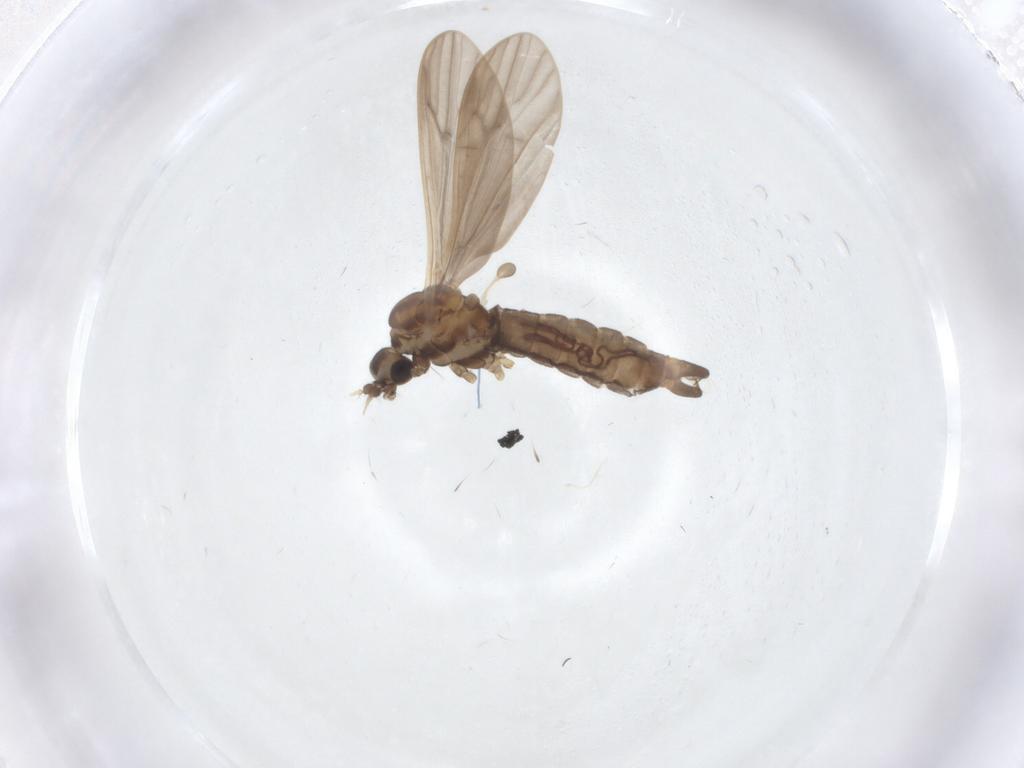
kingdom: Animalia
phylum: Arthropoda
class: Insecta
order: Diptera
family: Limoniidae
